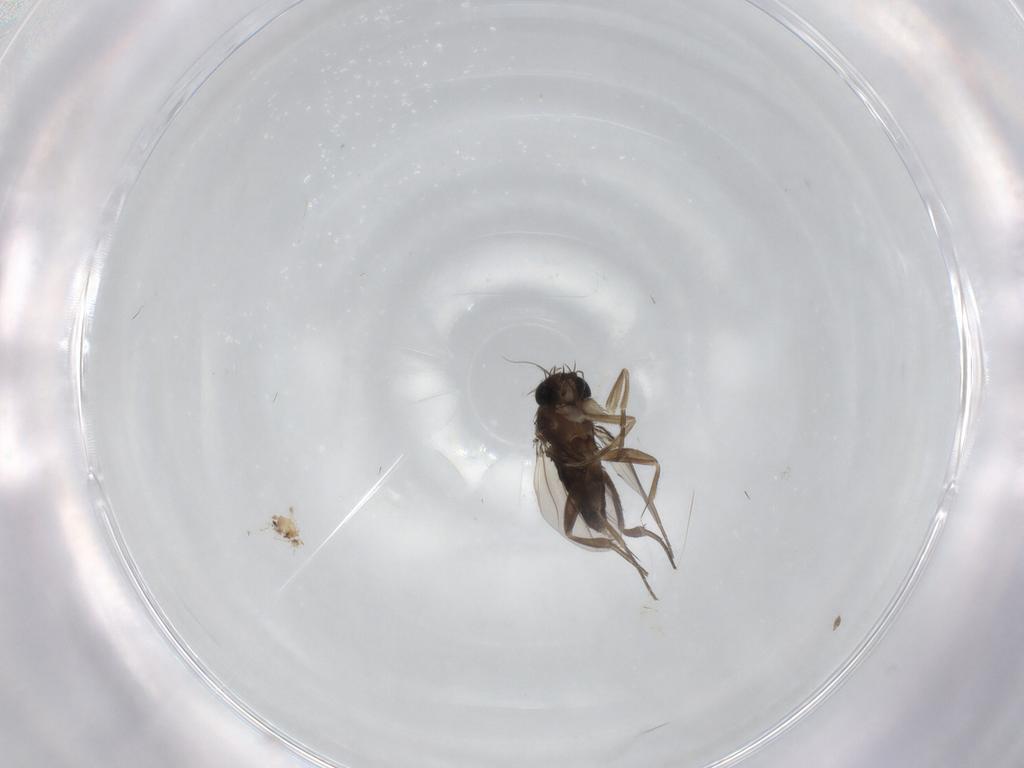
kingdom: Animalia
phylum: Arthropoda
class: Insecta
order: Diptera
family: Phoridae
